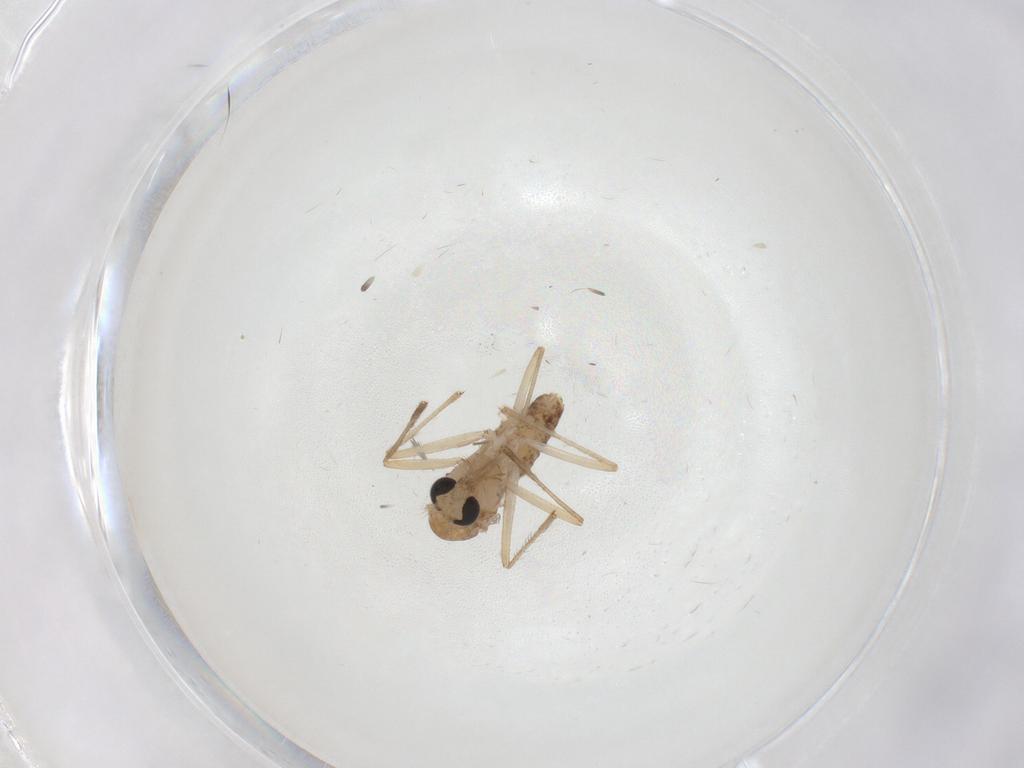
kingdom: Animalia
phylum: Arthropoda
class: Insecta
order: Diptera
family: Chironomidae
